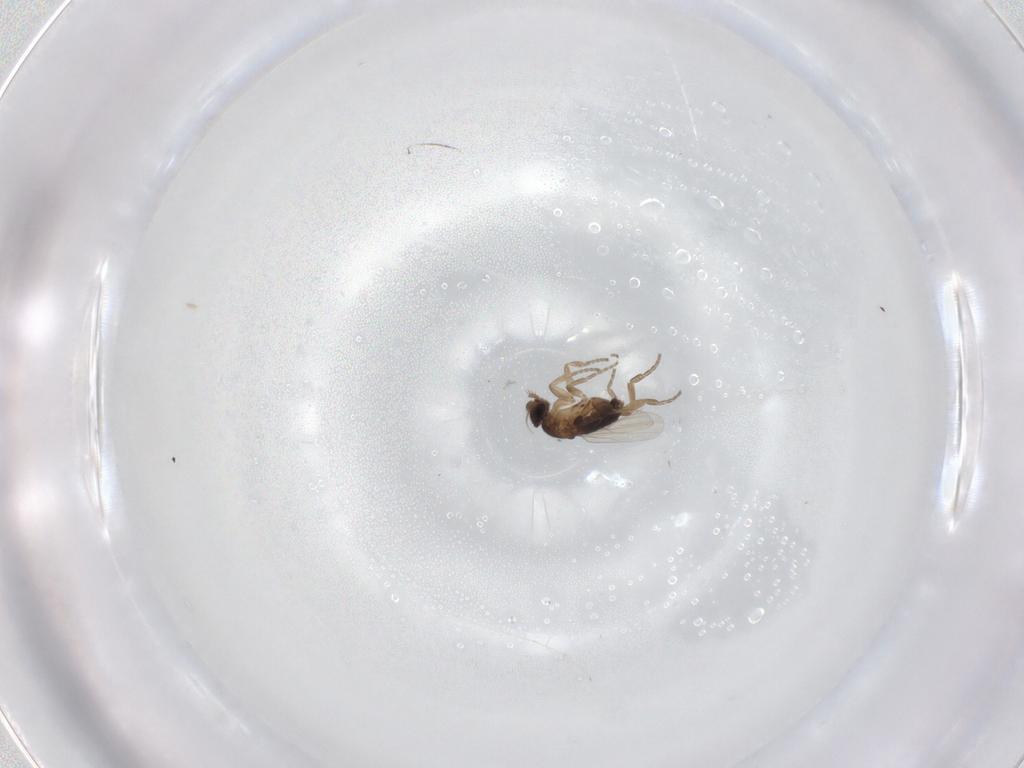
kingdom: Animalia
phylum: Arthropoda
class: Insecta
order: Diptera
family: Phoridae
